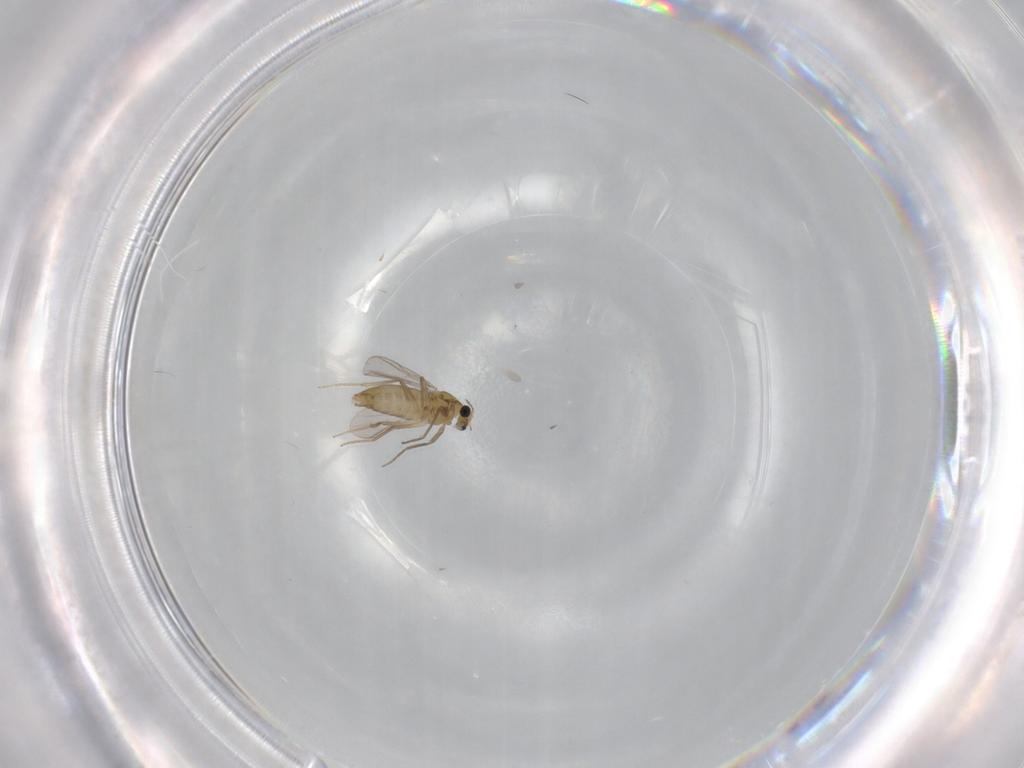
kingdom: Animalia
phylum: Arthropoda
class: Insecta
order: Diptera
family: Chironomidae
